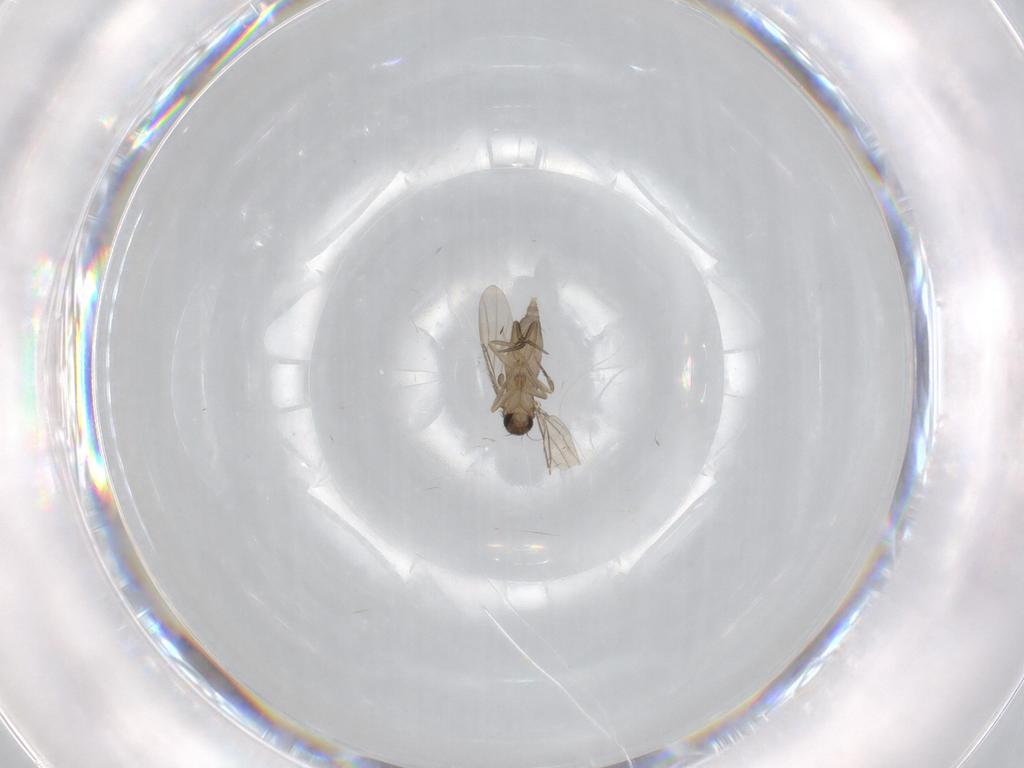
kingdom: Animalia
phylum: Arthropoda
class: Insecta
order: Diptera
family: Phoridae
